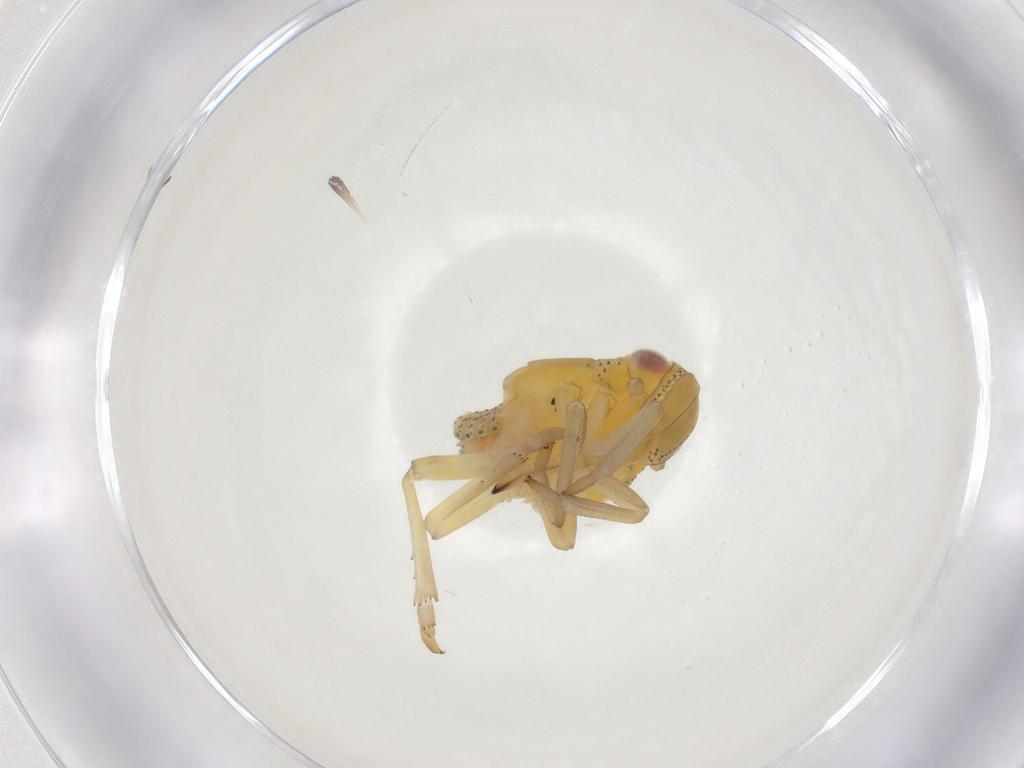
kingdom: Animalia
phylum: Arthropoda
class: Insecta
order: Hemiptera
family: Tropiduchidae
